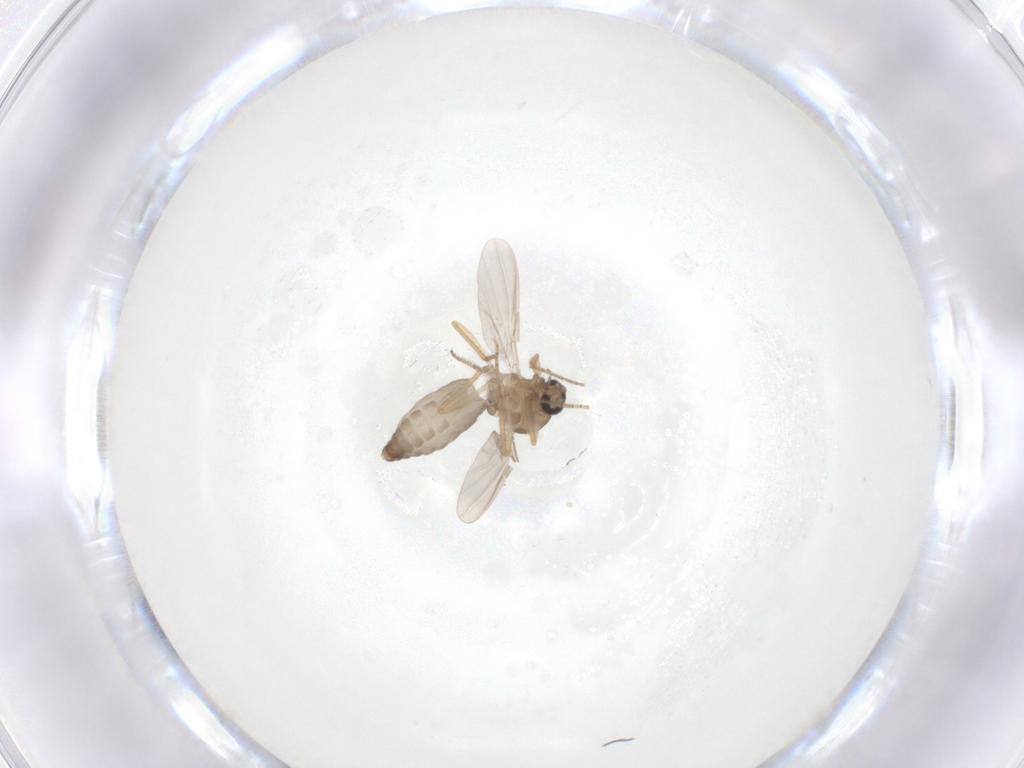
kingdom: Animalia
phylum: Arthropoda
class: Insecta
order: Diptera
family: Ceratopogonidae
